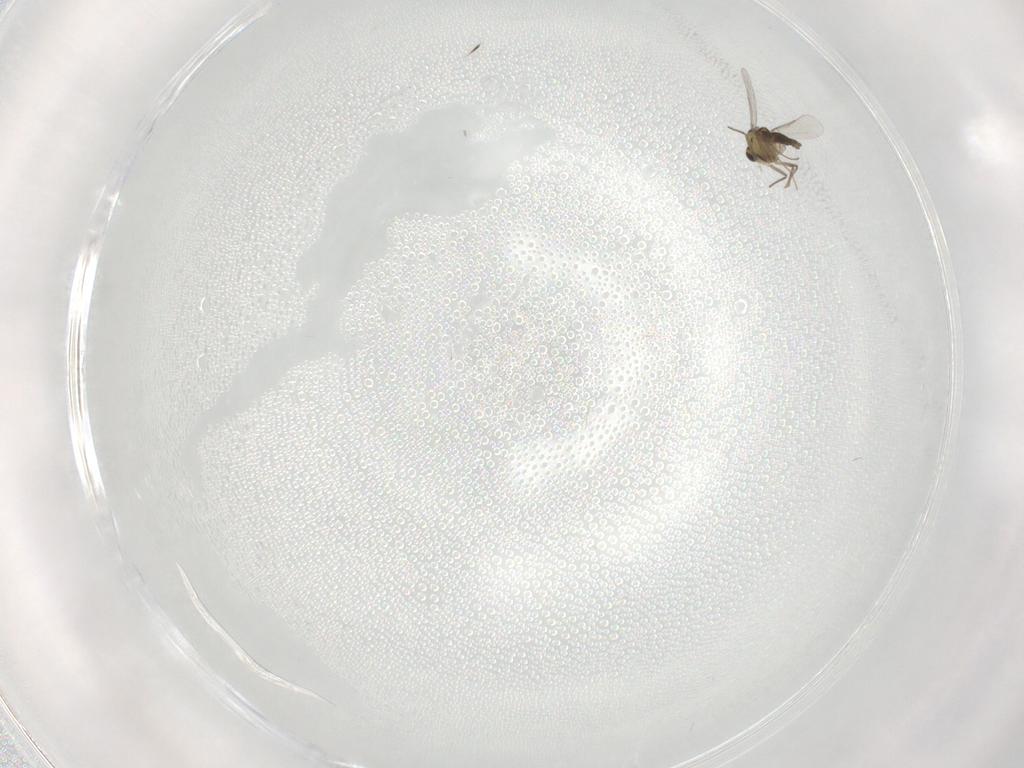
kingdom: Animalia
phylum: Arthropoda
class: Insecta
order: Diptera
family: Chironomidae
